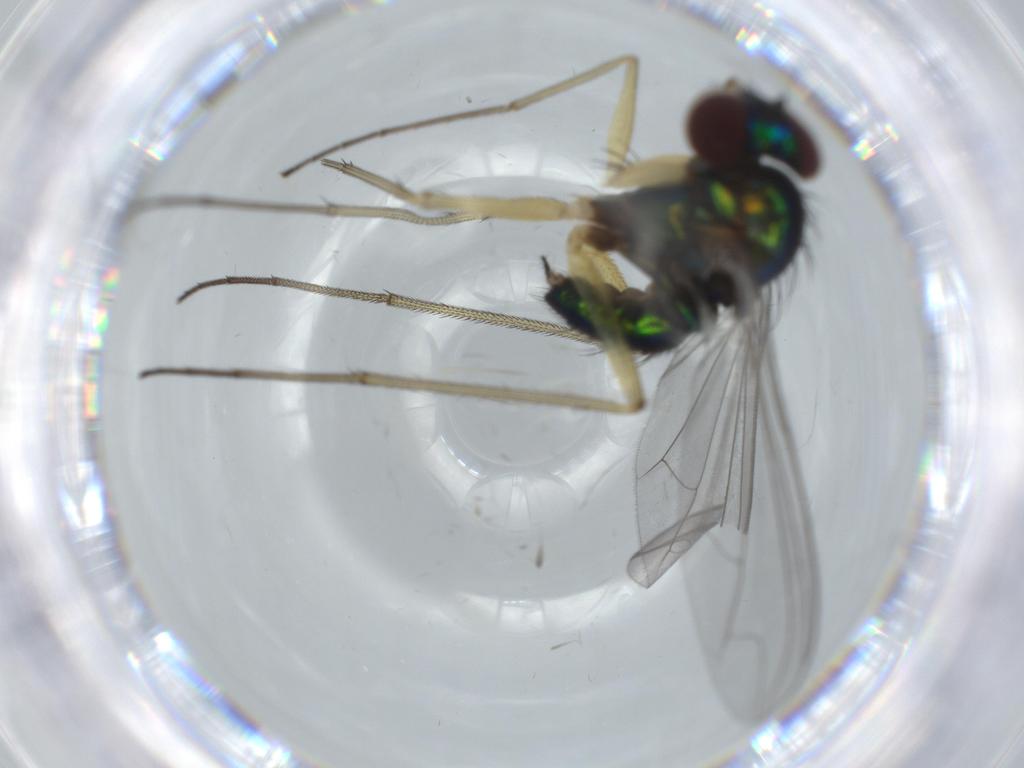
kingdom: Animalia
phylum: Arthropoda
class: Insecta
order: Diptera
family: Dolichopodidae
